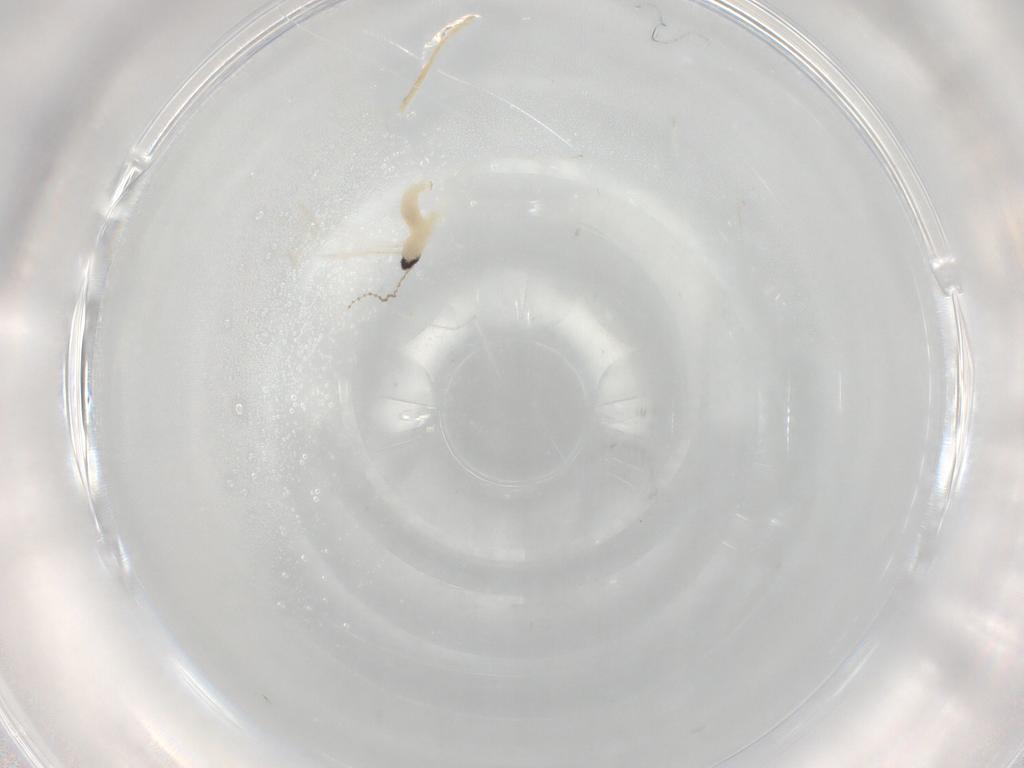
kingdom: Animalia
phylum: Arthropoda
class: Insecta
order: Diptera
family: Cecidomyiidae
